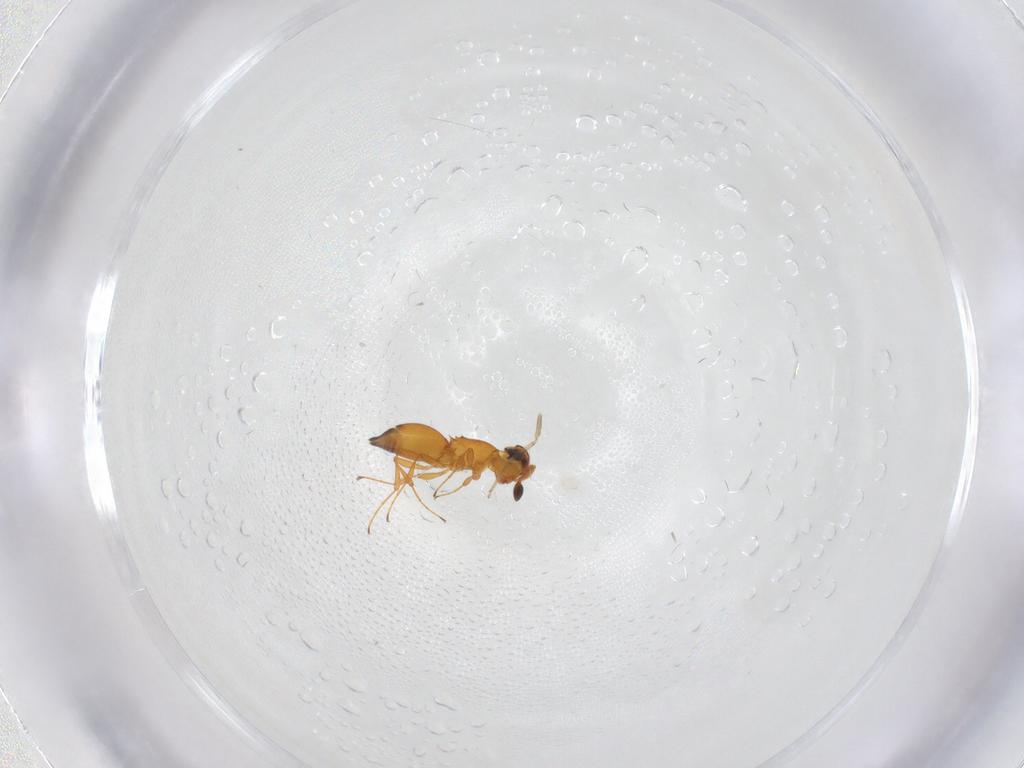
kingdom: Animalia
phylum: Arthropoda
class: Insecta
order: Hymenoptera
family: Platygastridae
